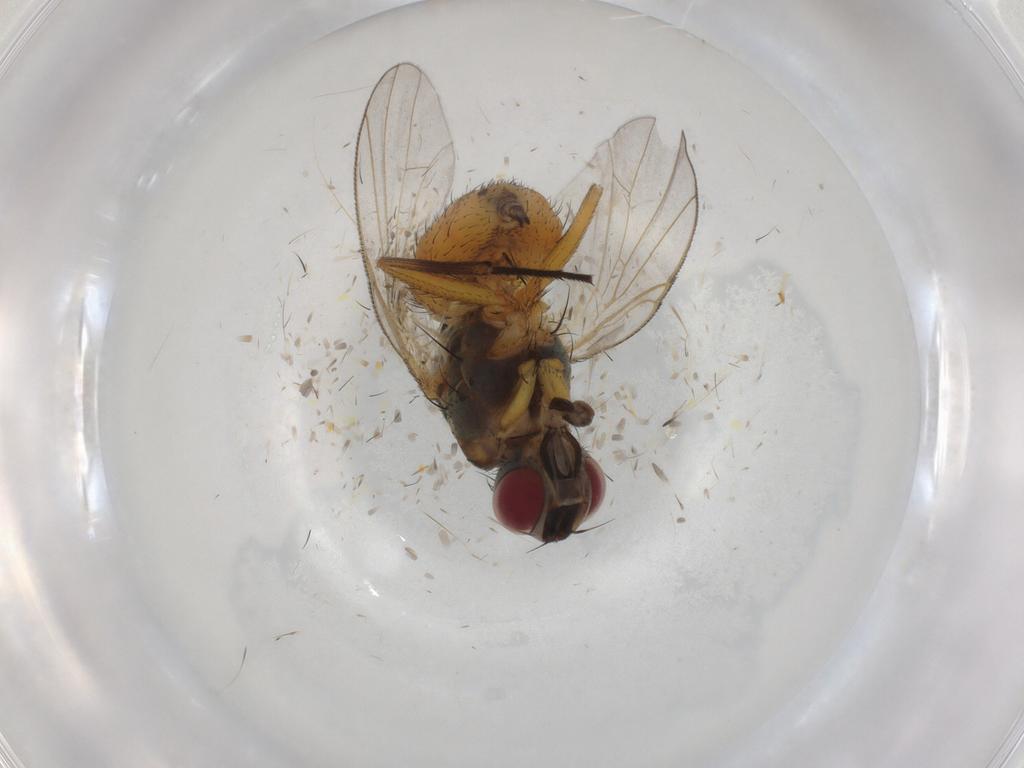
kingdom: Animalia
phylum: Arthropoda
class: Insecta
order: Diptera
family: Muscidae
